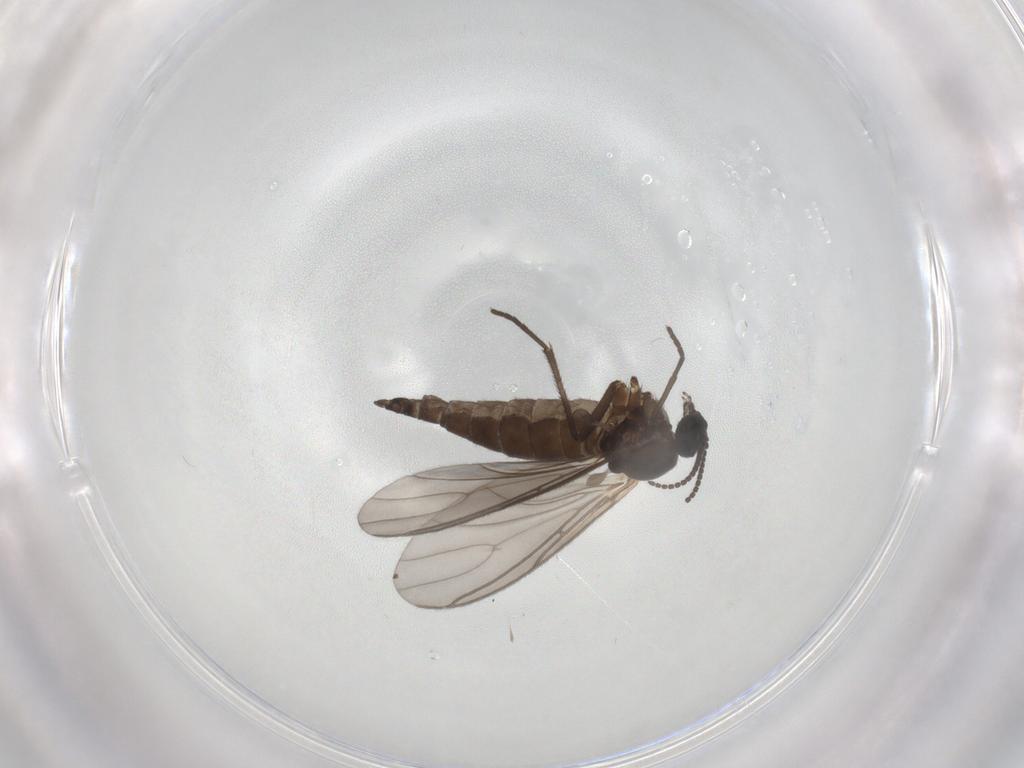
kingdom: Animalia
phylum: Arthropoda
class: Insecta
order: Diptera
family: Sciaridae
